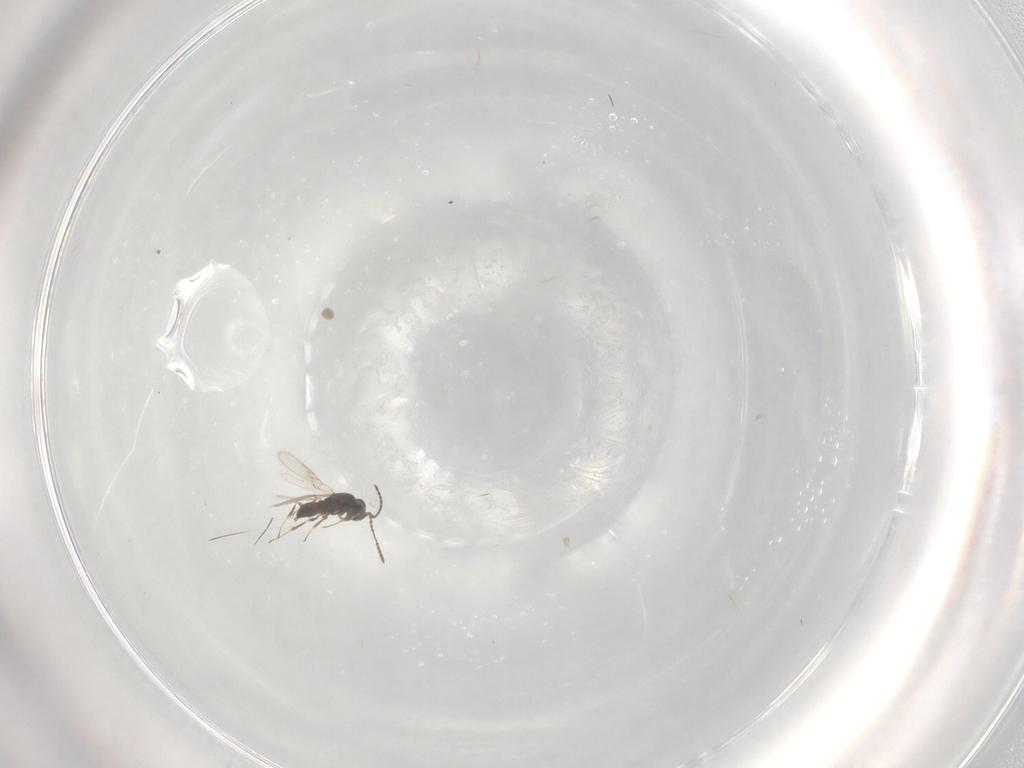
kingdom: Animalia
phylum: Arthropoda
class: Insecta
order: Hymenoptera
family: Scelionidae
